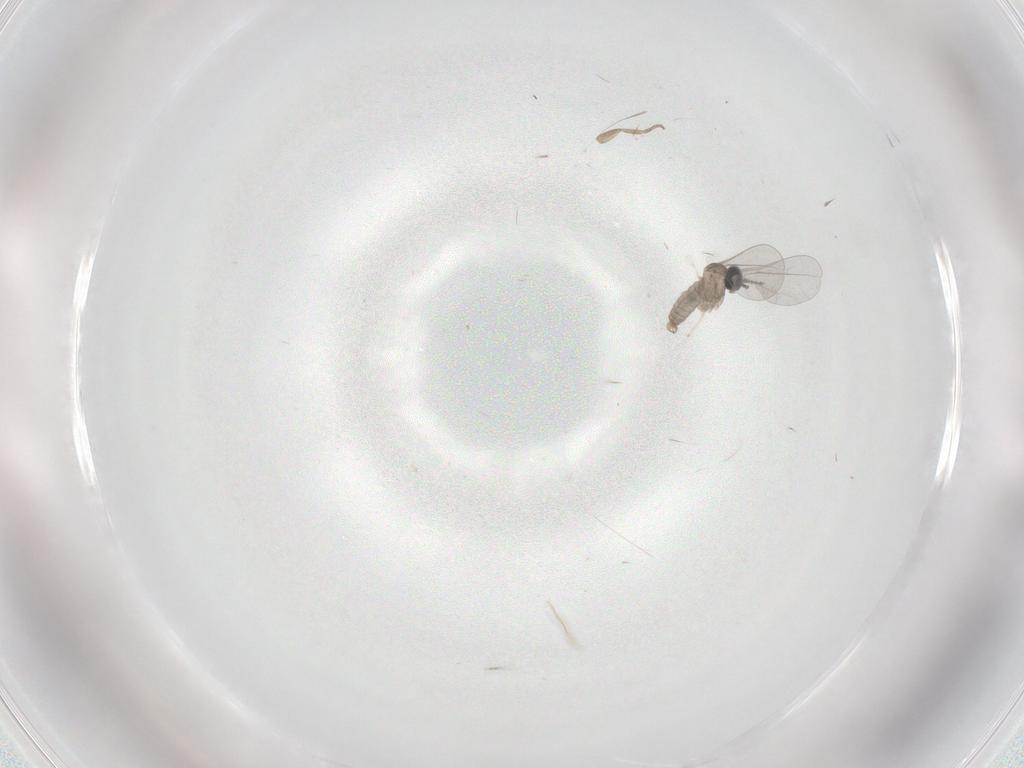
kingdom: Animalia
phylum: Arthropoda
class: Insecta
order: Diptera
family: Cecidomyiidae
